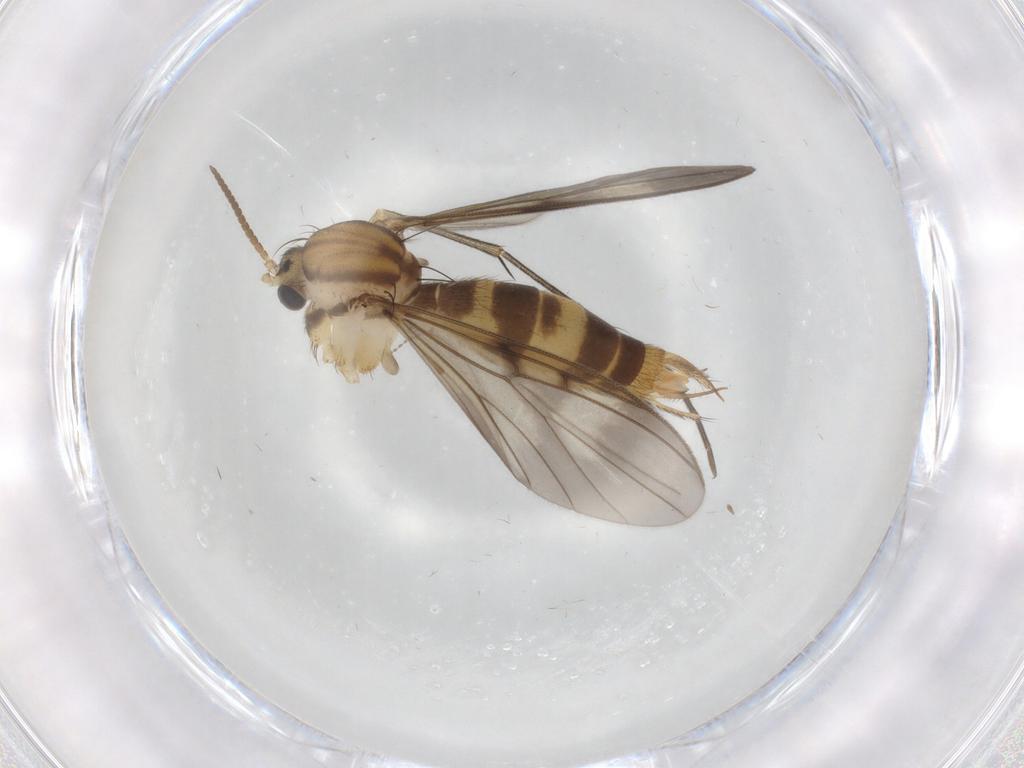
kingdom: Animalia
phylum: Arthropoda
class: Insecta
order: Diptera
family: Mycetophilidae
